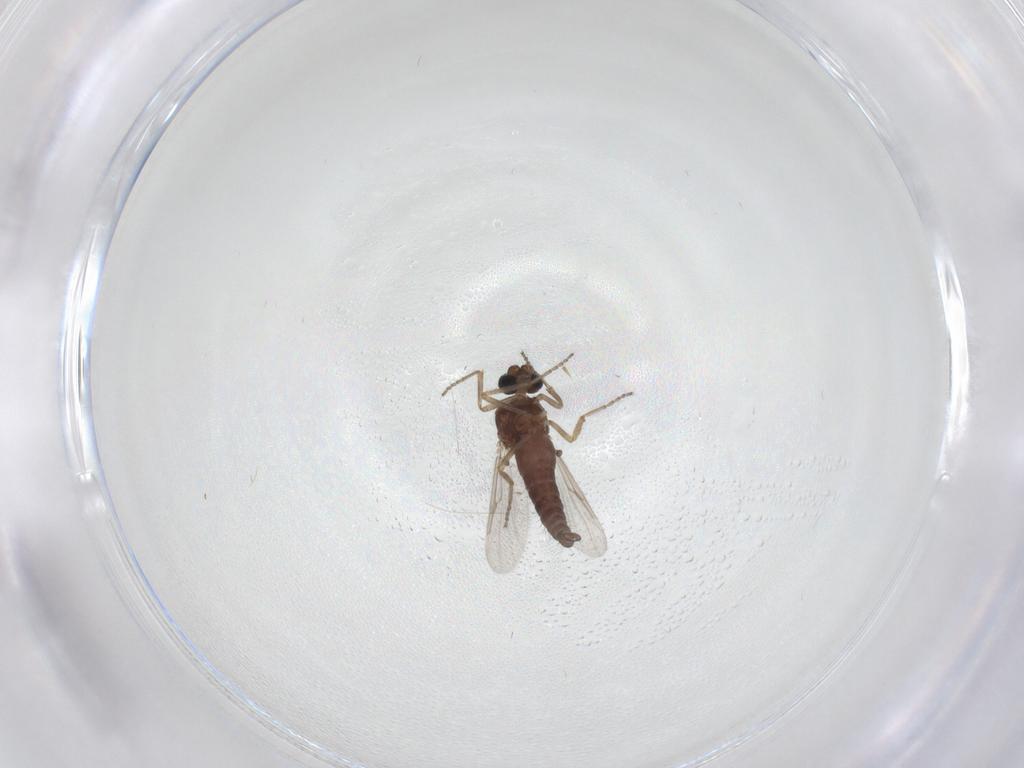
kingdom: Animalia
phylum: Arthropoda
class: Insecta
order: Diptera
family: Ceratopogonidae
